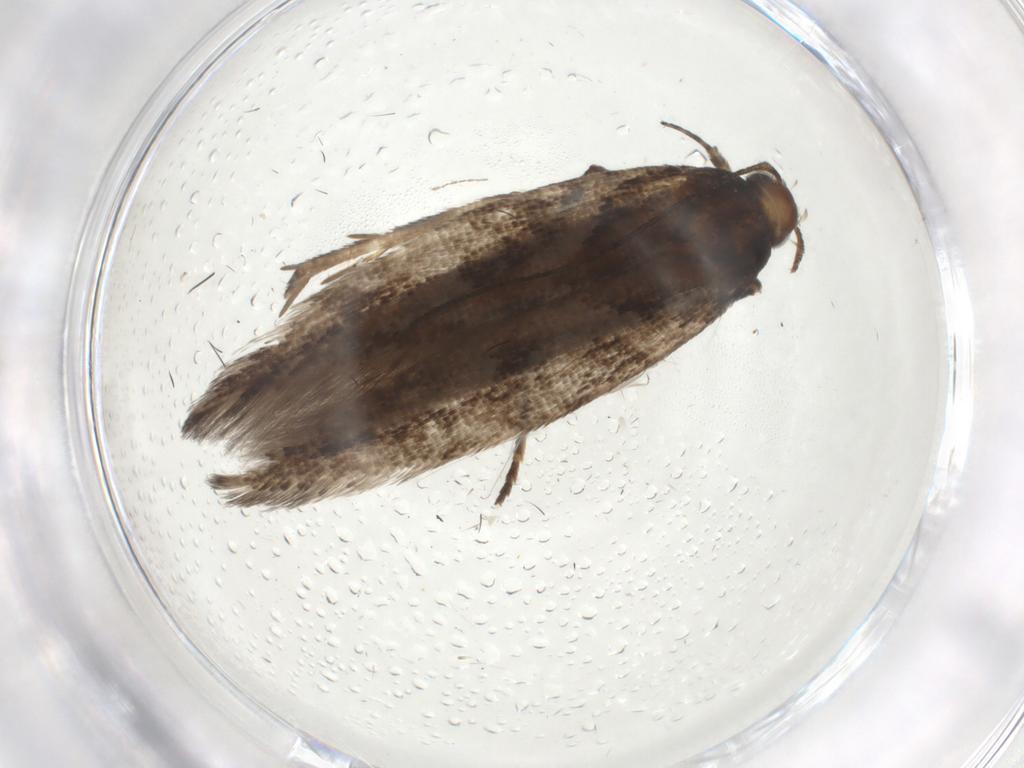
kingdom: Animalia
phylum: Arthropoda
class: Insecta
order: Lepidoptera
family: Gelechiidae
